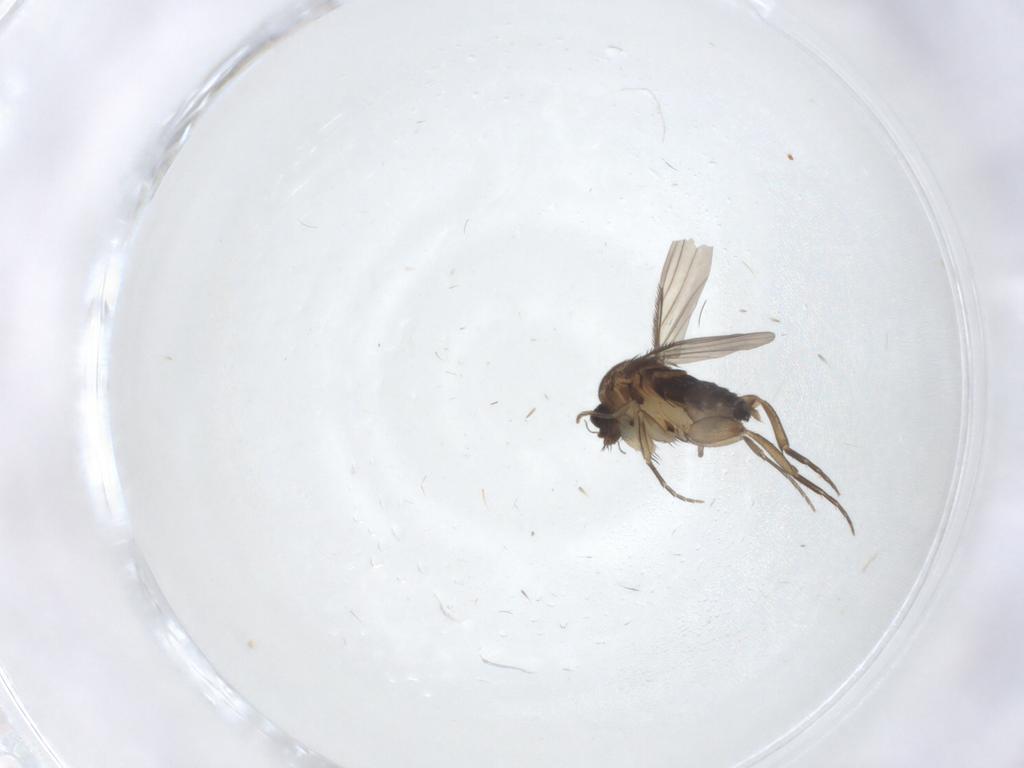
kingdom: Animalia
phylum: Arthropoda
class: Insecta
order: Diptera
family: Phoridae
